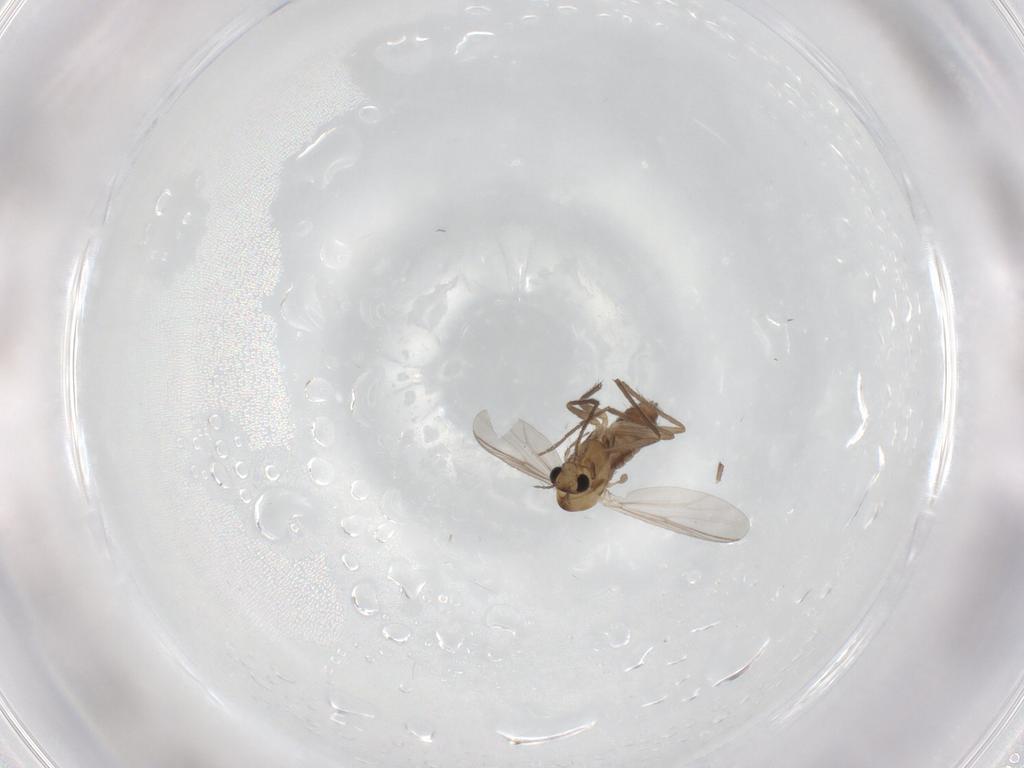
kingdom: Animalia
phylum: Arthropoda
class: Insecta
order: Diptera
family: Chironomidae
